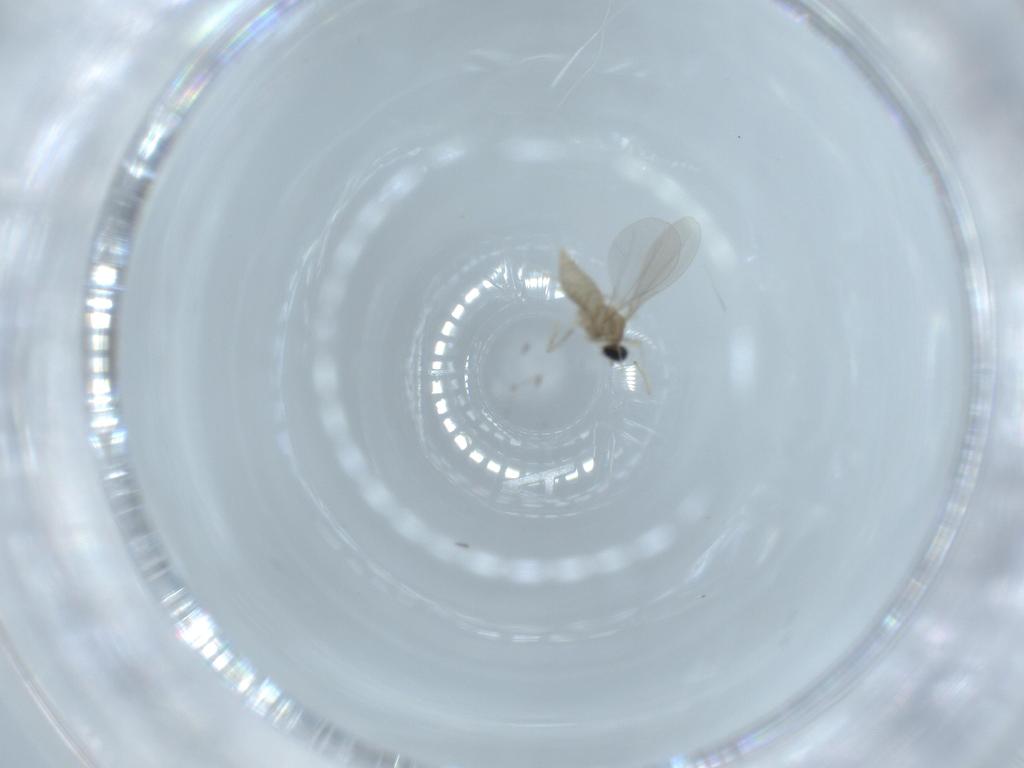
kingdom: Animalia
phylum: Arthropoda
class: Insecta
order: Diptera
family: Cecidomyiidae
